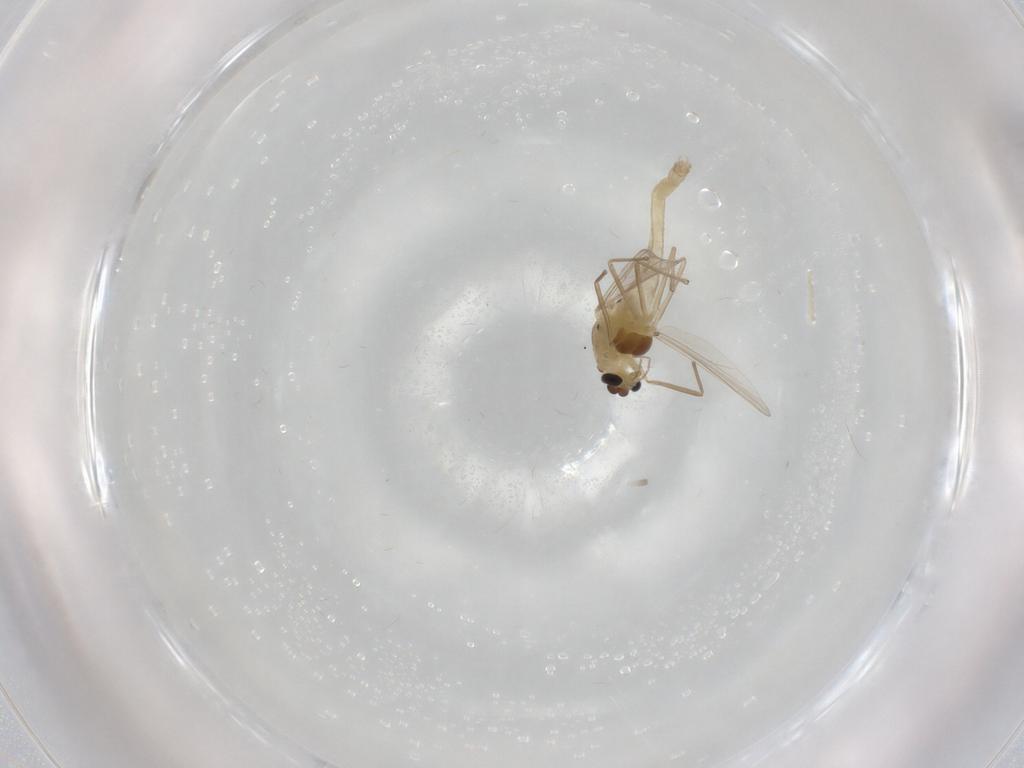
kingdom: Animalia
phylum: Arthropoda
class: Insecta
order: Diptera
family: Chironomidae
